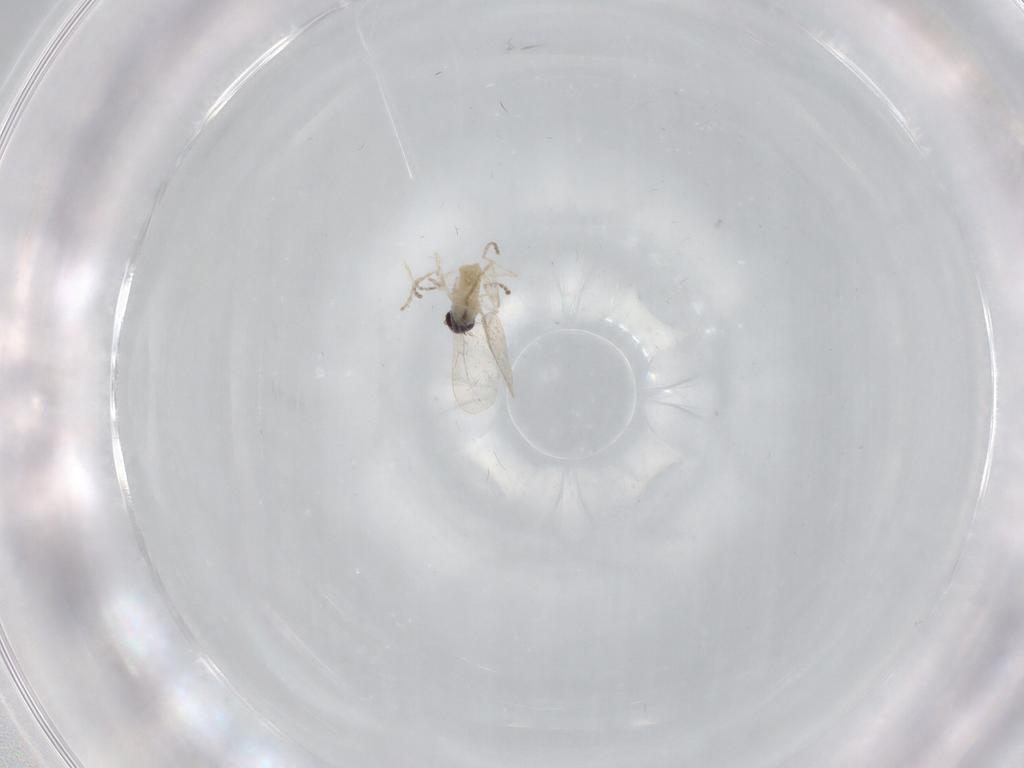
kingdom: Animalia
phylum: Arthropoda
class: Insecta
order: Diptera
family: Cecidomyiidae
